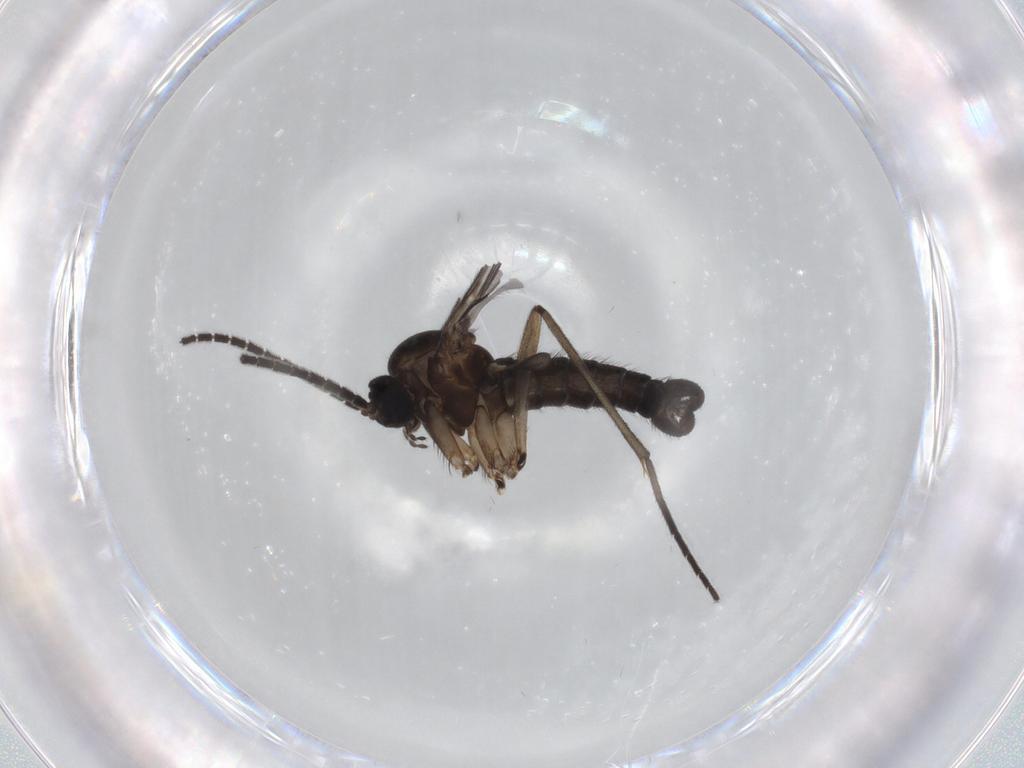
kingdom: Animalia
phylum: Arthropoda
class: Insecta
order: Diptera
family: Sciaridae
